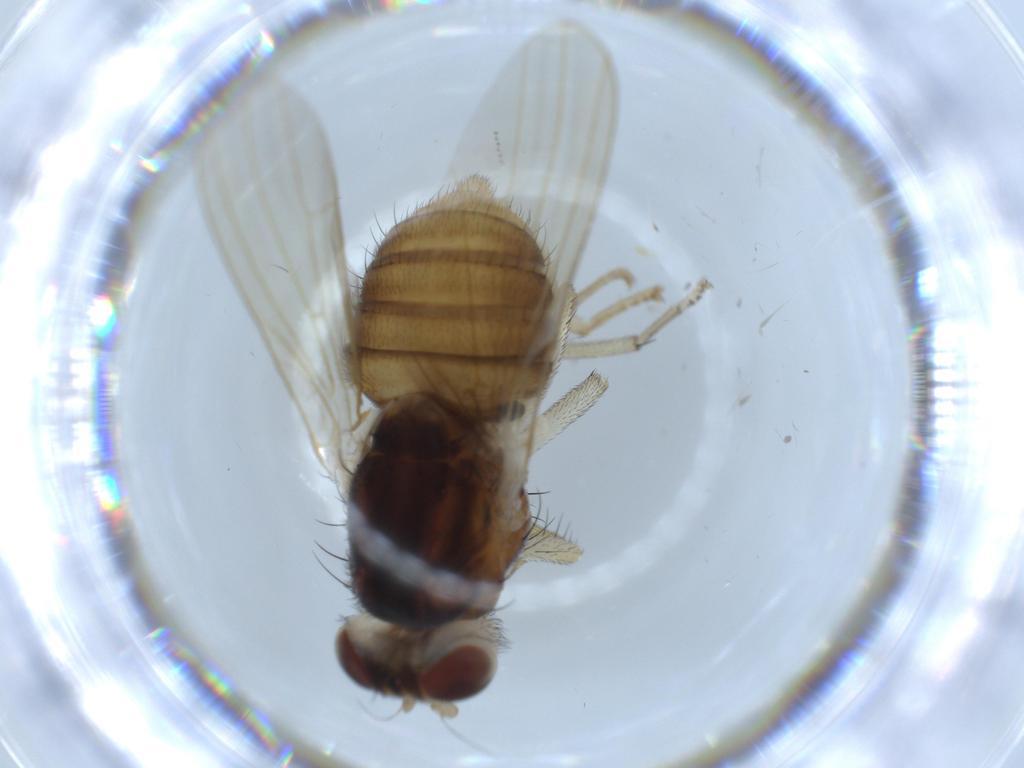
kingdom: Animalia
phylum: Arthropoda
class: Insecta
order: Diptera
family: Lauxaniidae
